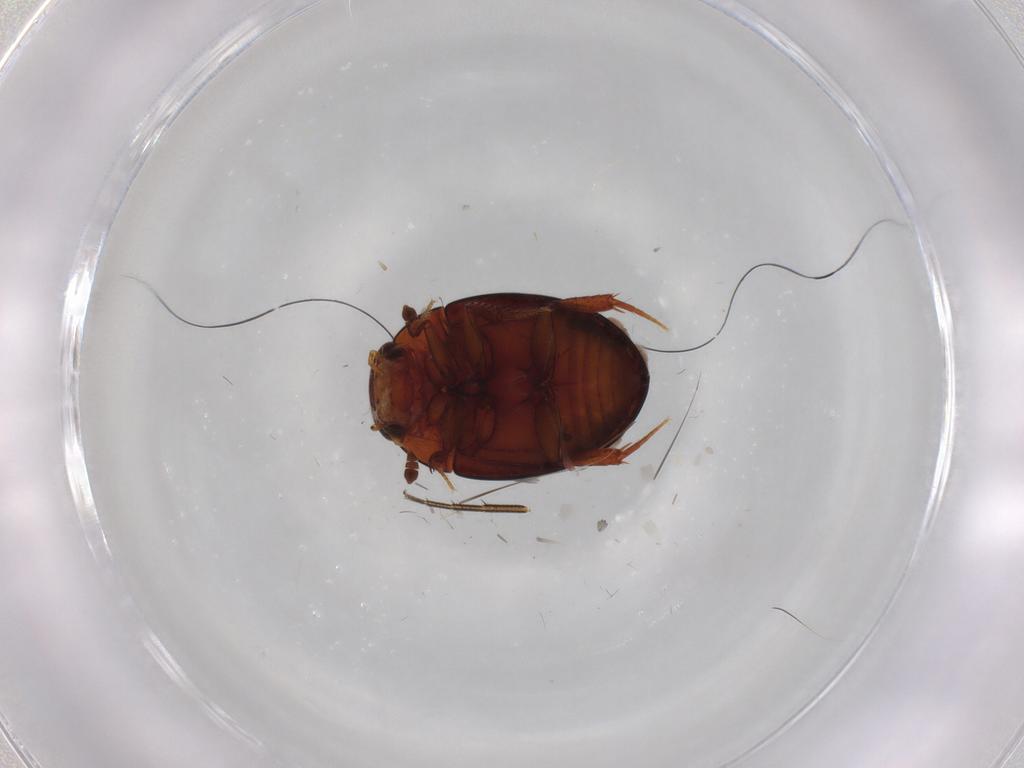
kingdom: Animalia
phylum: Arthropoda
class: Insecta
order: Coleoptera
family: Hydrophilidae
